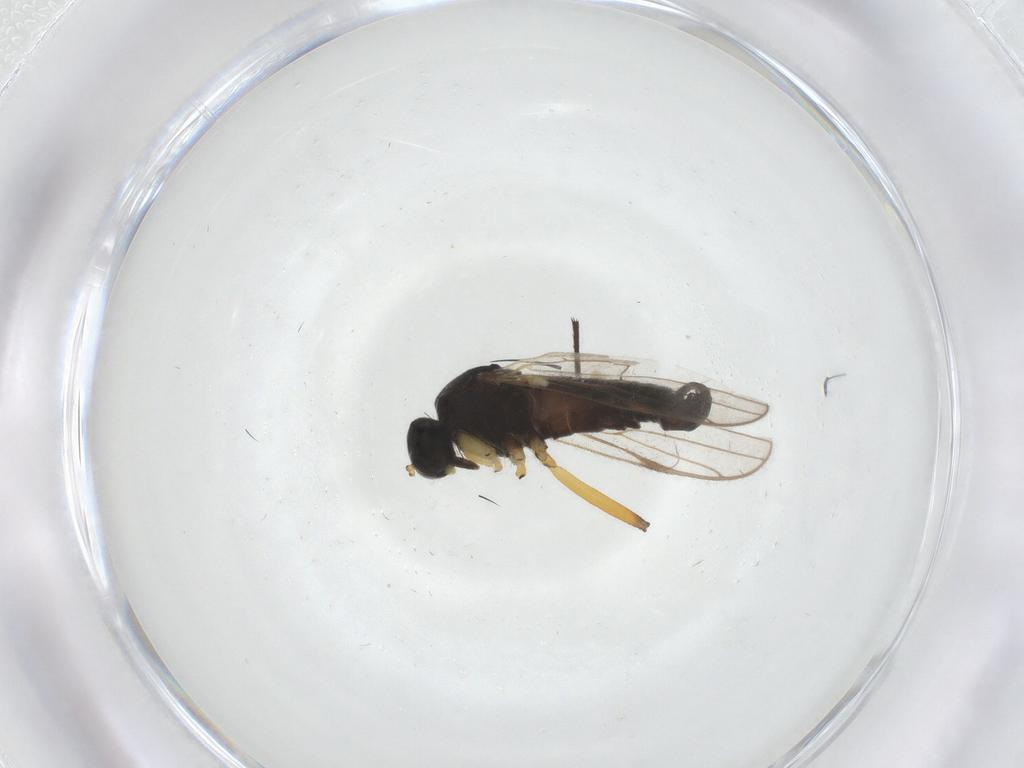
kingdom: Animalia
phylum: Arthropoda
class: Insecta
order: Diptera
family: Hybotidae
